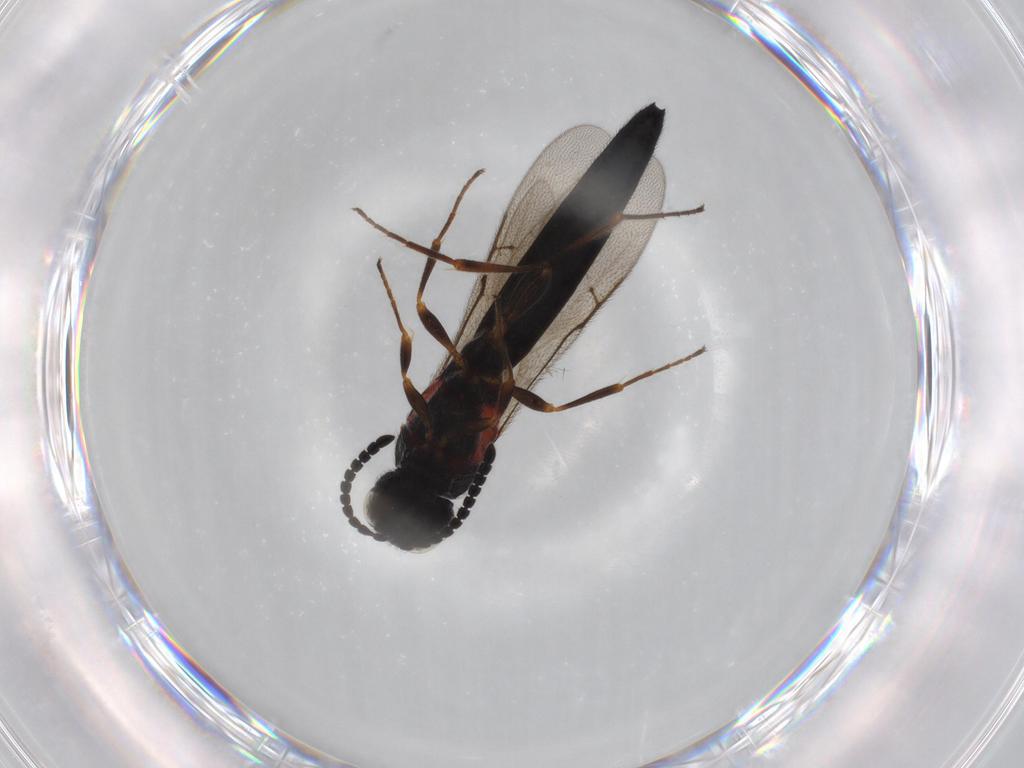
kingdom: Animalia
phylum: Arthropoda
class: Insecta
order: Hymenoptera
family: Scelionidae
